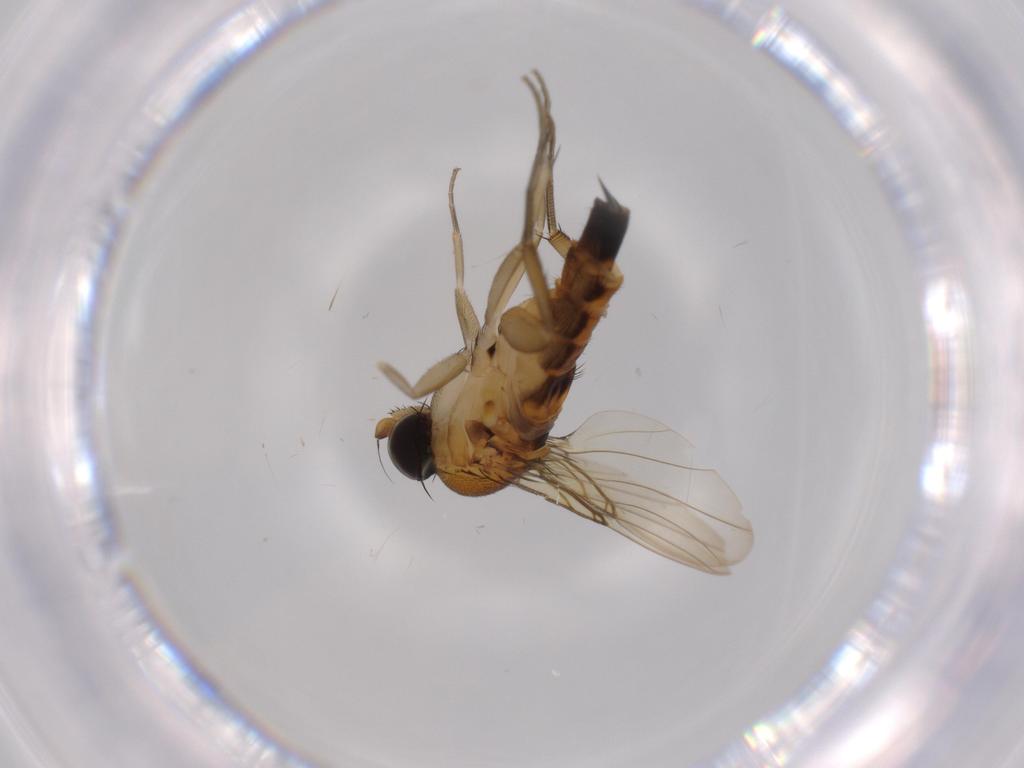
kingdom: Animalia
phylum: Arthropoda
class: Insecta
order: Diptera
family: Phoridae
